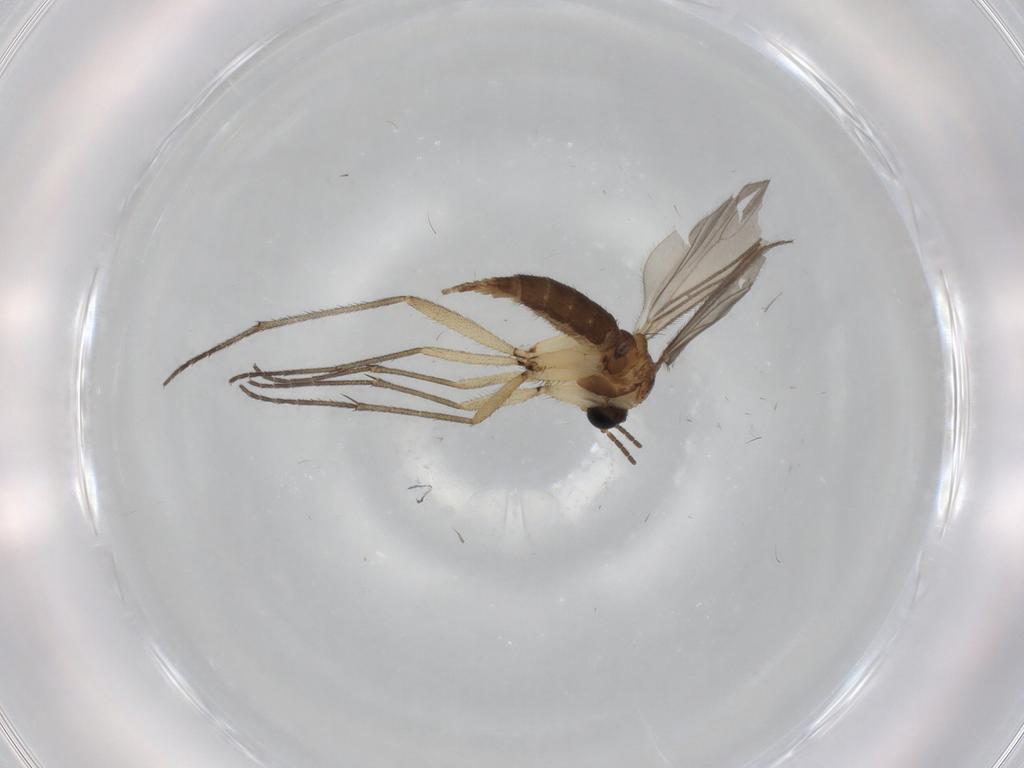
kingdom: Animalia
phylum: Arthropoda
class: Insecta
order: Diptera
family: Sciaridae
